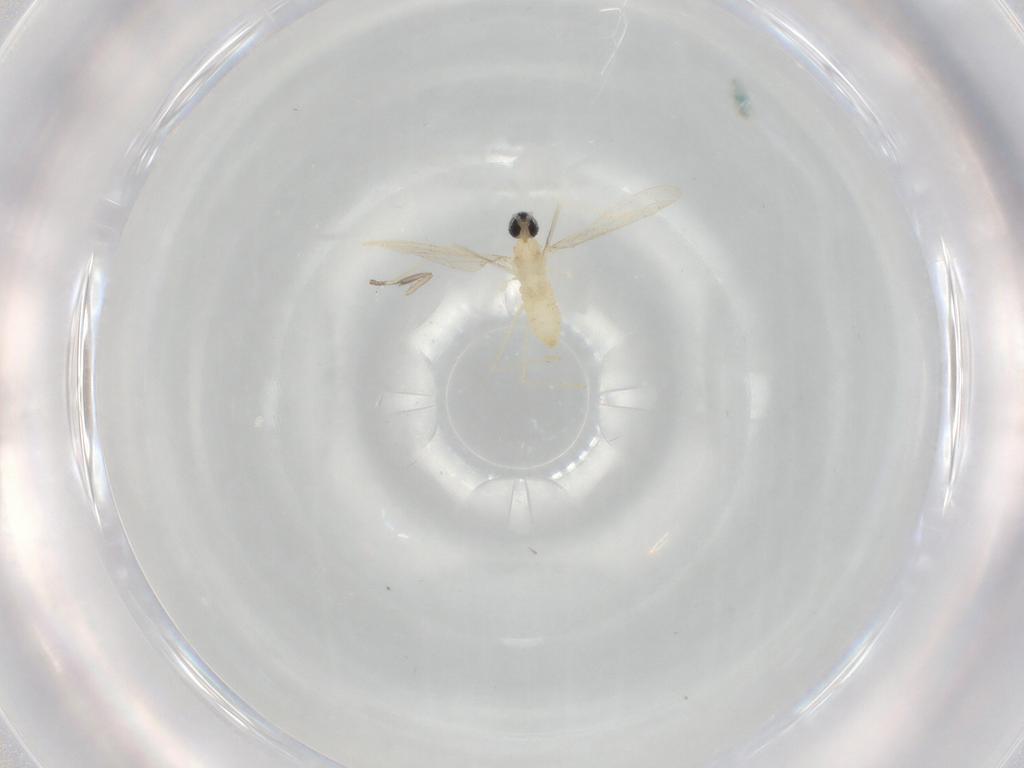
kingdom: Animalia
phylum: Arthropoda
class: Insecta
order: Diptera
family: Cecidomyiidae
